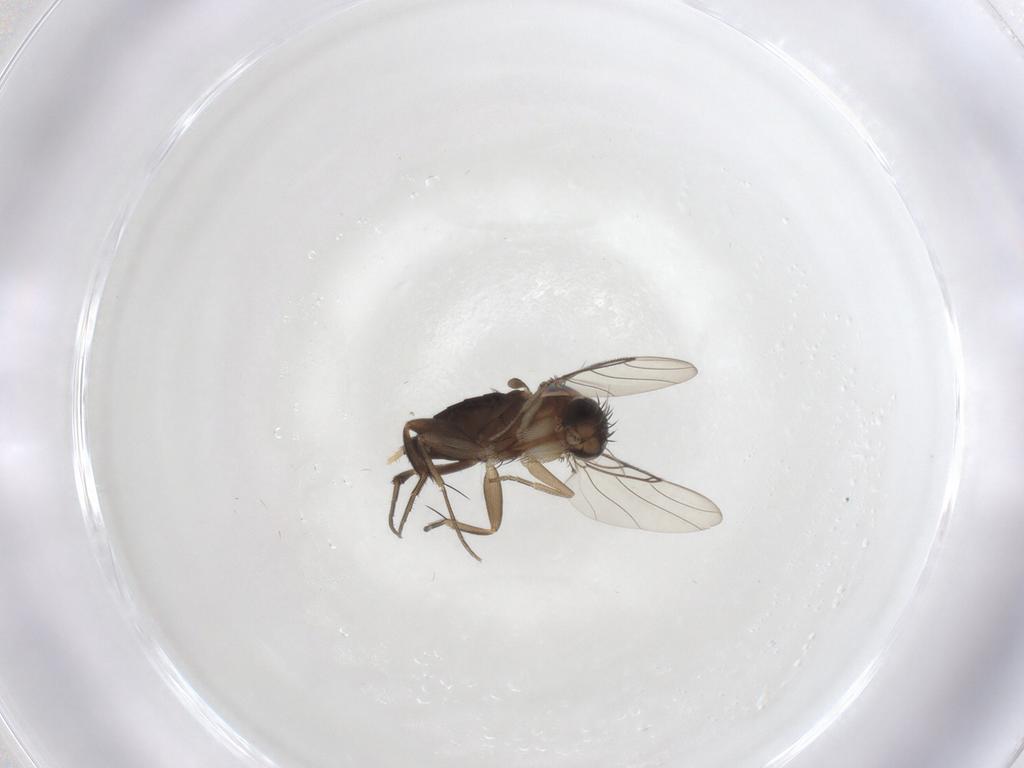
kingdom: Animalia
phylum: Arthropoda
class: Insecta
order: Diptera
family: Phoridae
